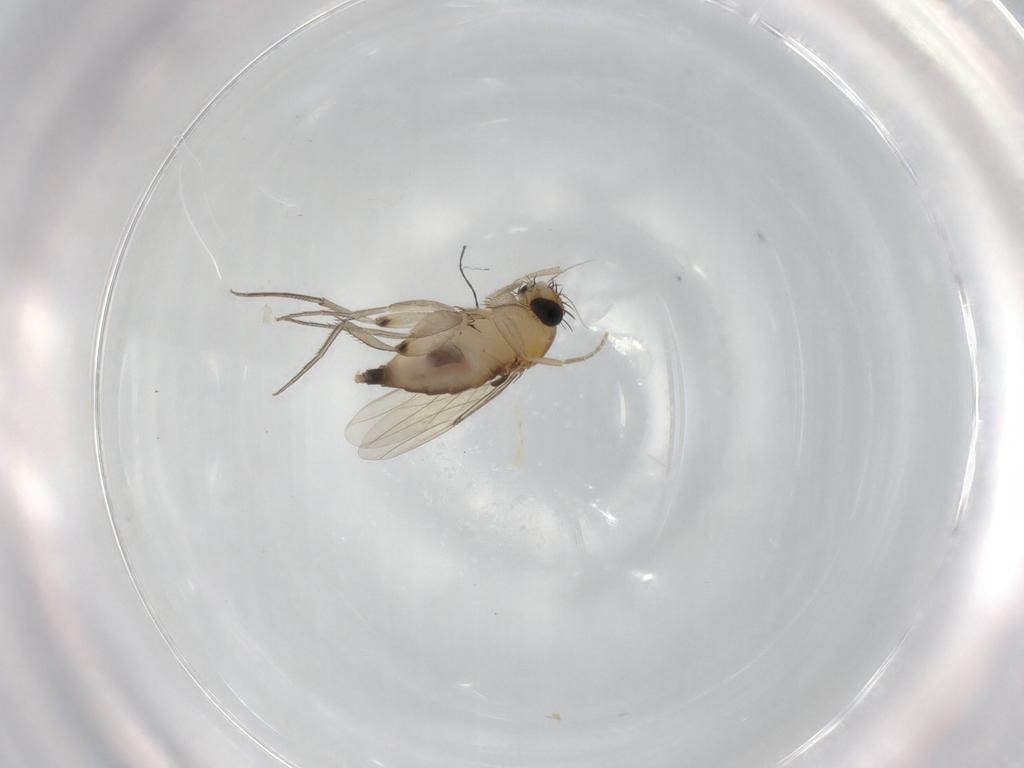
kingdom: Animalia
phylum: Arthropoda
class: Insecta
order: Diptera
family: Phoridae
